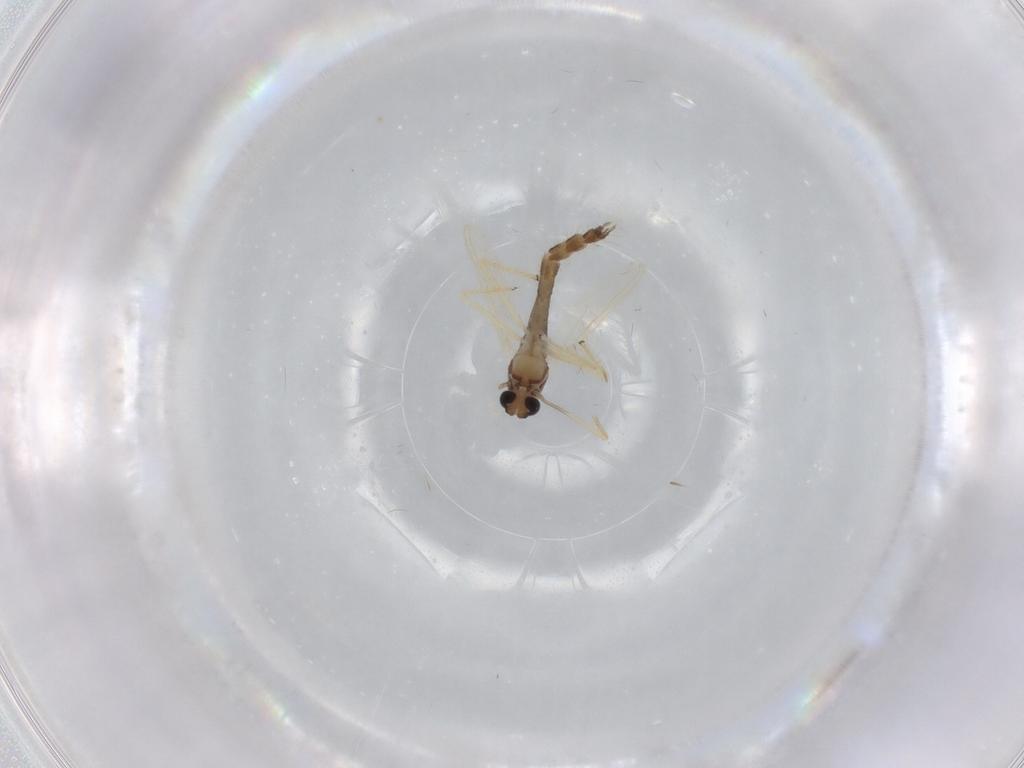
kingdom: Animalia
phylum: Arthropoda
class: Insecta
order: Diptera
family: Chironomidae
